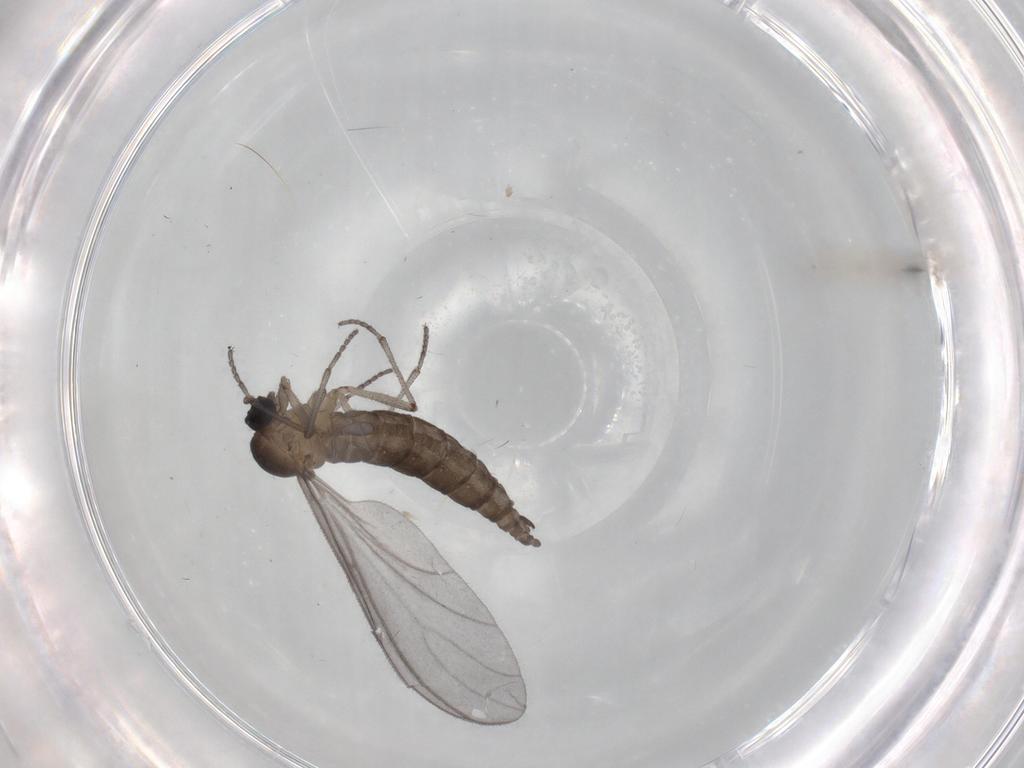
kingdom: Animalia
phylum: Arthropoda
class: Insecta
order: Diptera
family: Sciaridae
